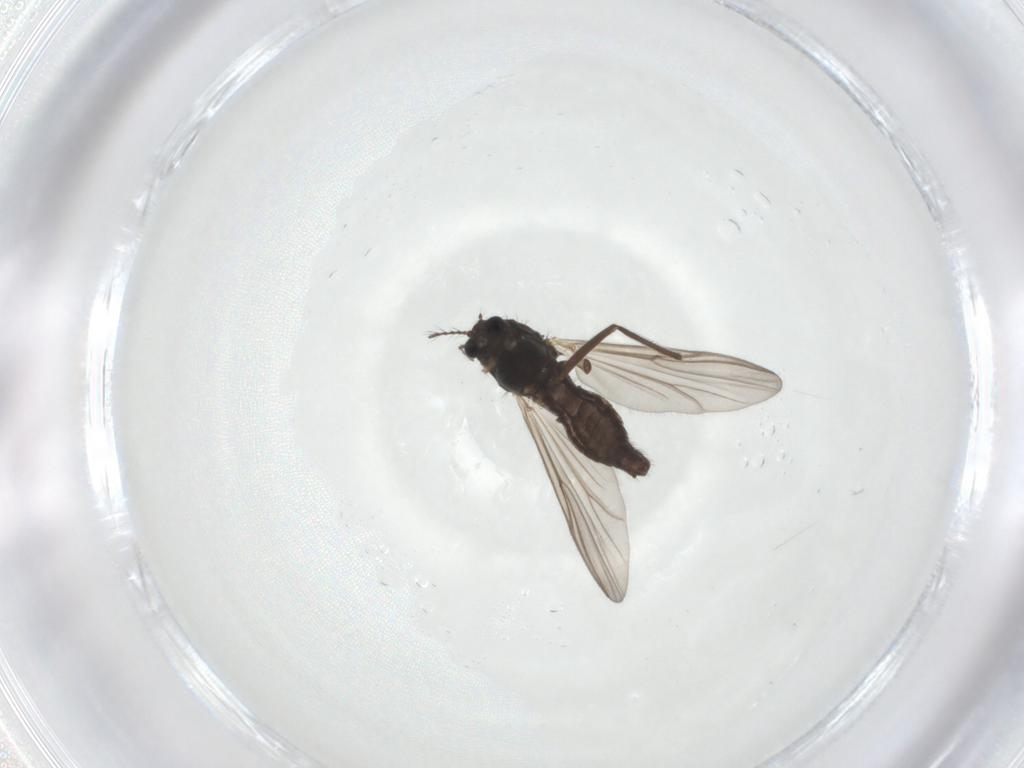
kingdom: Animalia
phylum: Arthropoda
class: Insecta
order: Diptera
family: Chironomidae
